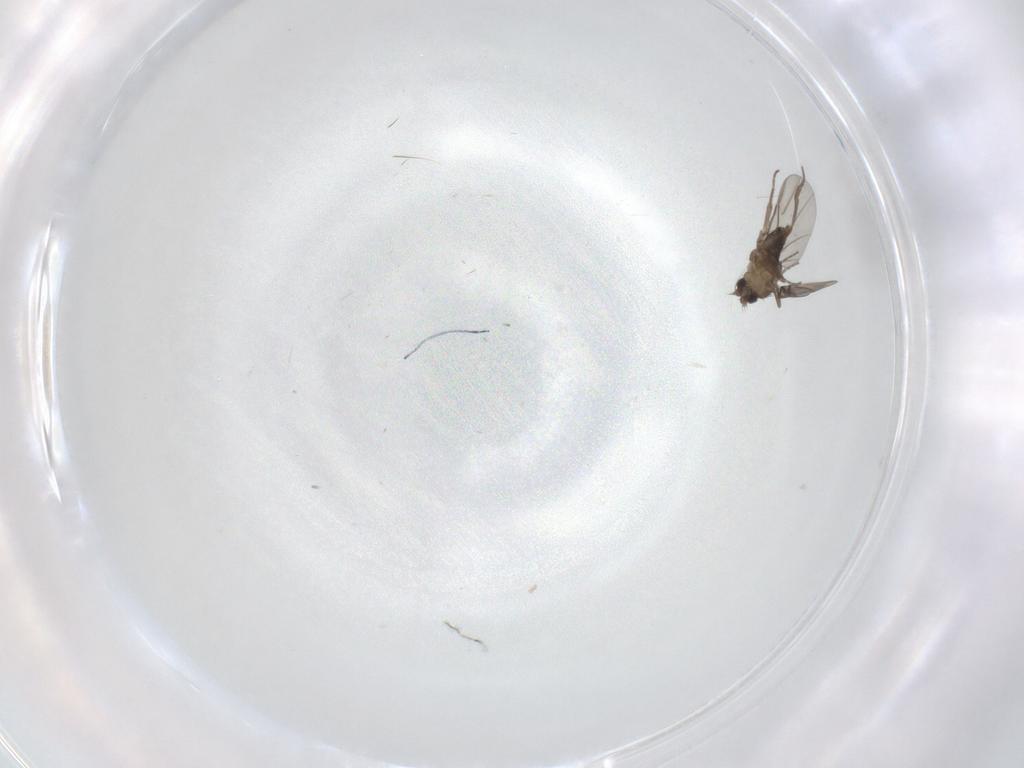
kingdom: Animalia
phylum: Arthropoda
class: Insecta
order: Diptera
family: Phoridae
